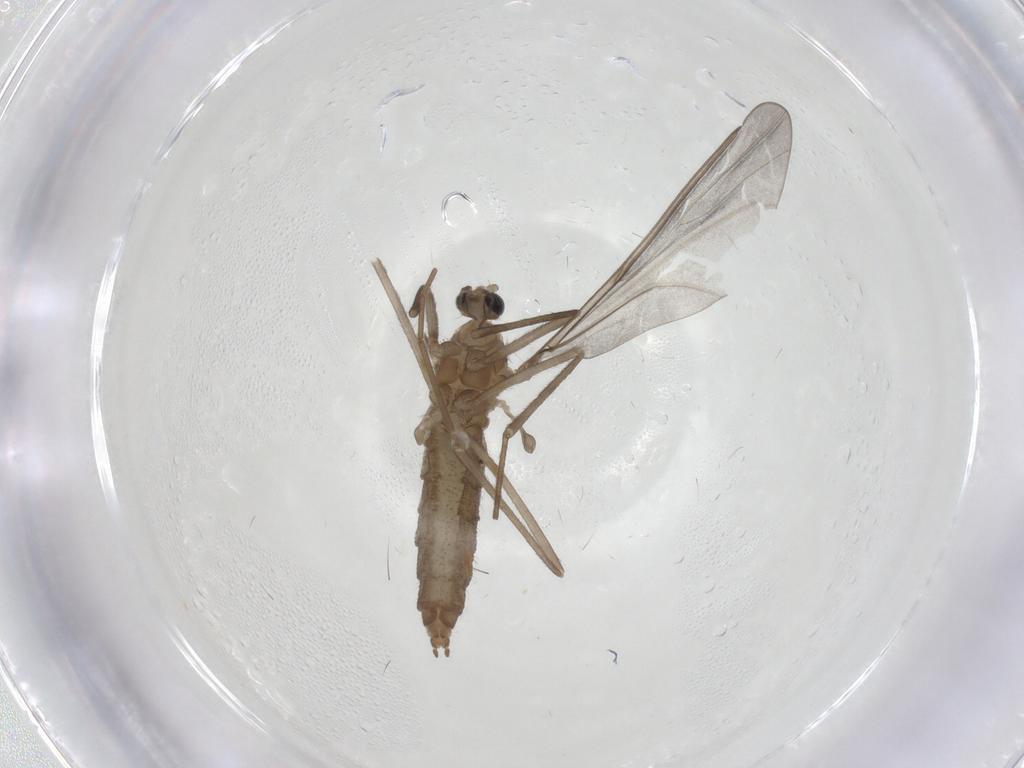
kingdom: Animalia
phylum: Arthropoda
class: Insecta
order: Diptera
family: Cecidomyiidae
